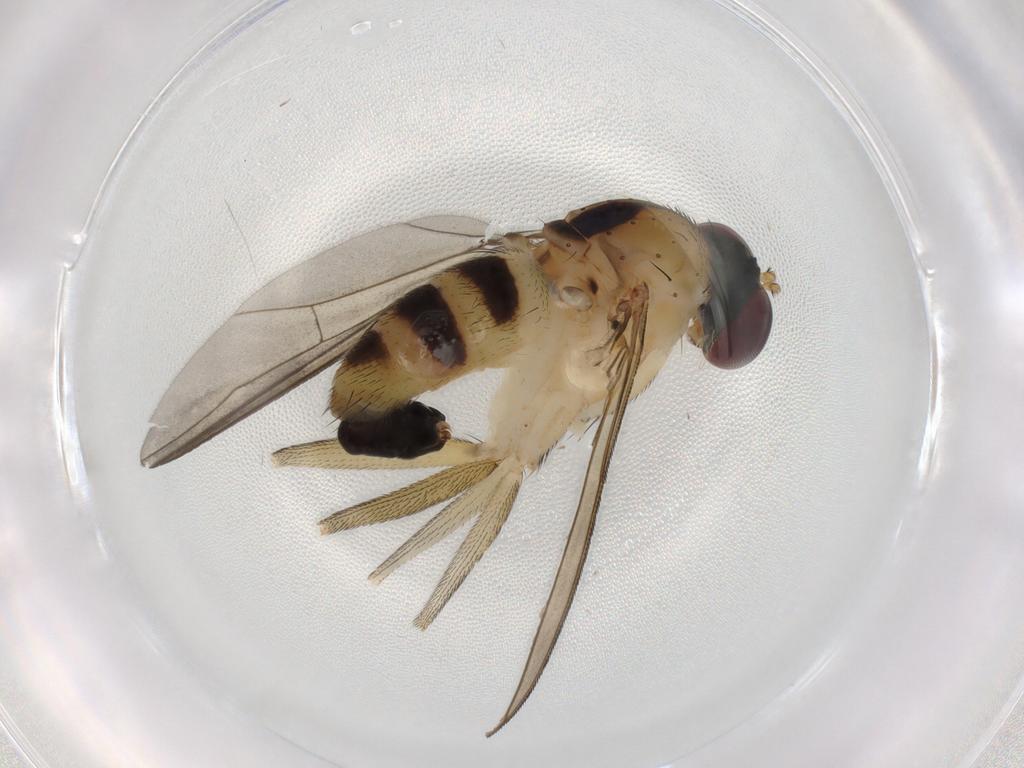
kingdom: Animalia
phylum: Arthropoda
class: Insecta
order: Diptera
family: Dolichopodidae
